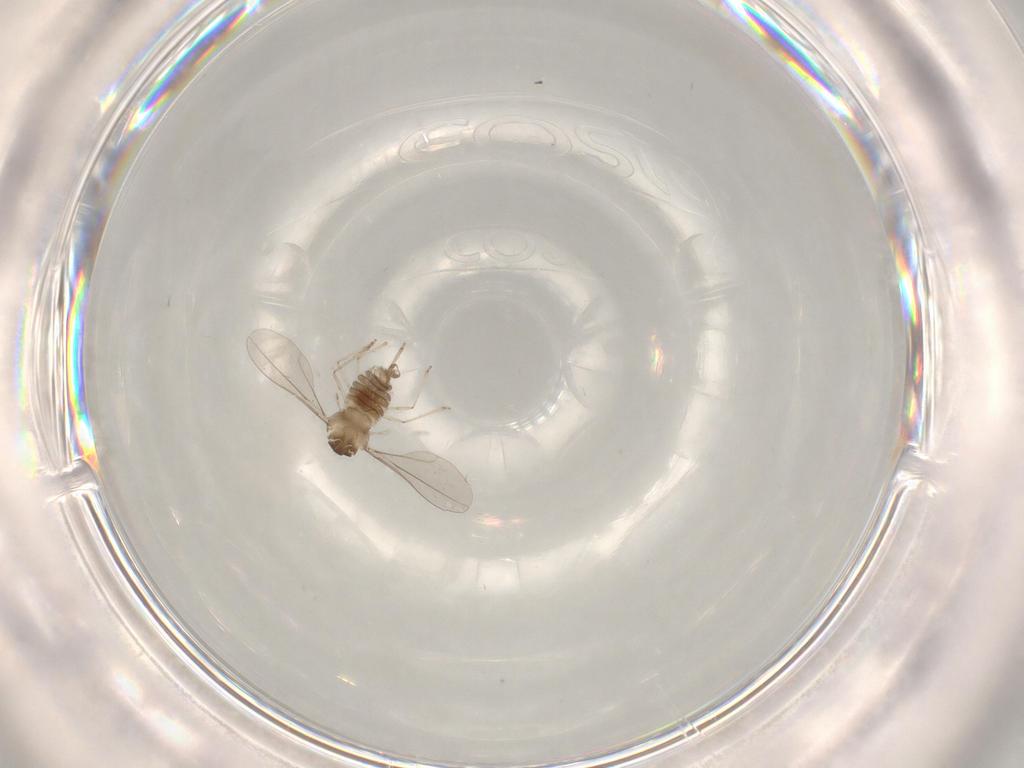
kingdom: Animalia
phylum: Arthropoda
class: Insecta
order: Diptera
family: Cecidomyiidae
